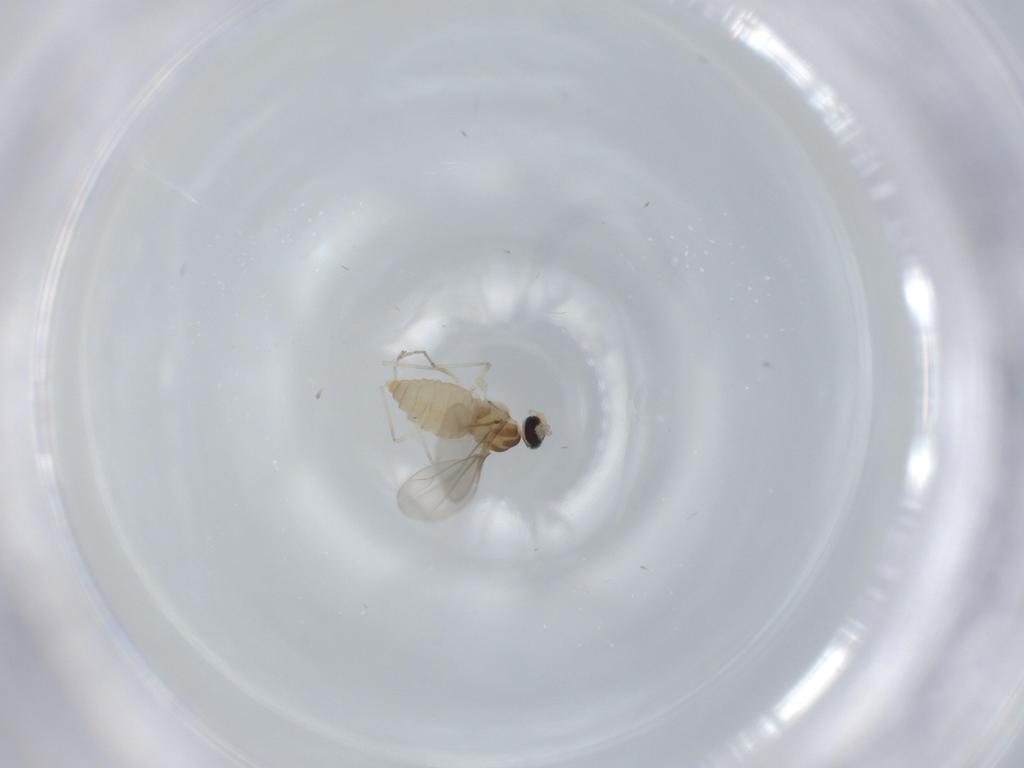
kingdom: Animalia
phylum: Arthropoda
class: Insecta
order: Diptera
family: Cecidomyiidae
